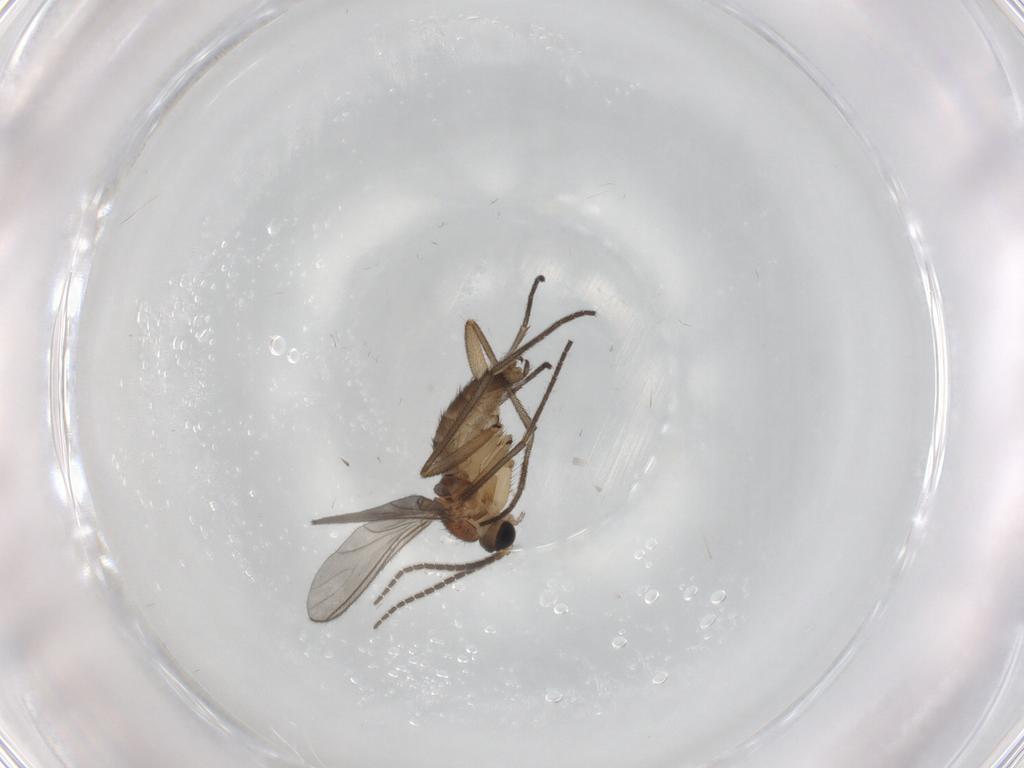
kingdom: Animalia
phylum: Arthropoda
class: Insecta
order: Diptera
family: Sciaridae
